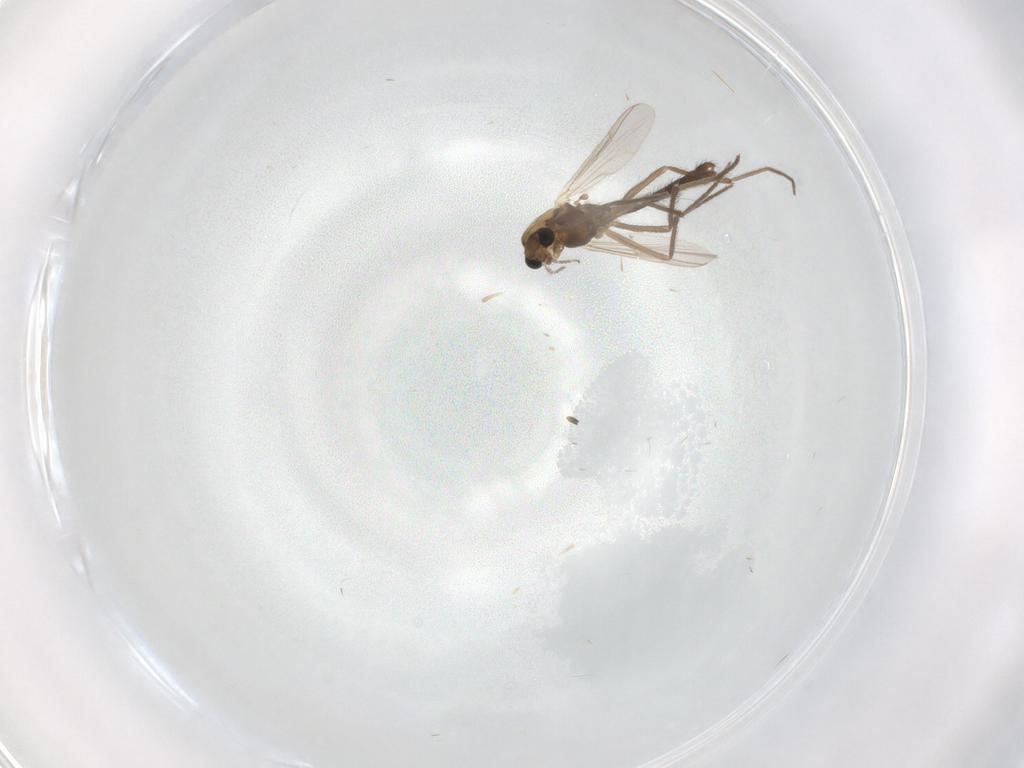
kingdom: Animalia
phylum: Arthropoda
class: Insecta
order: Diptera
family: Chironomidae
